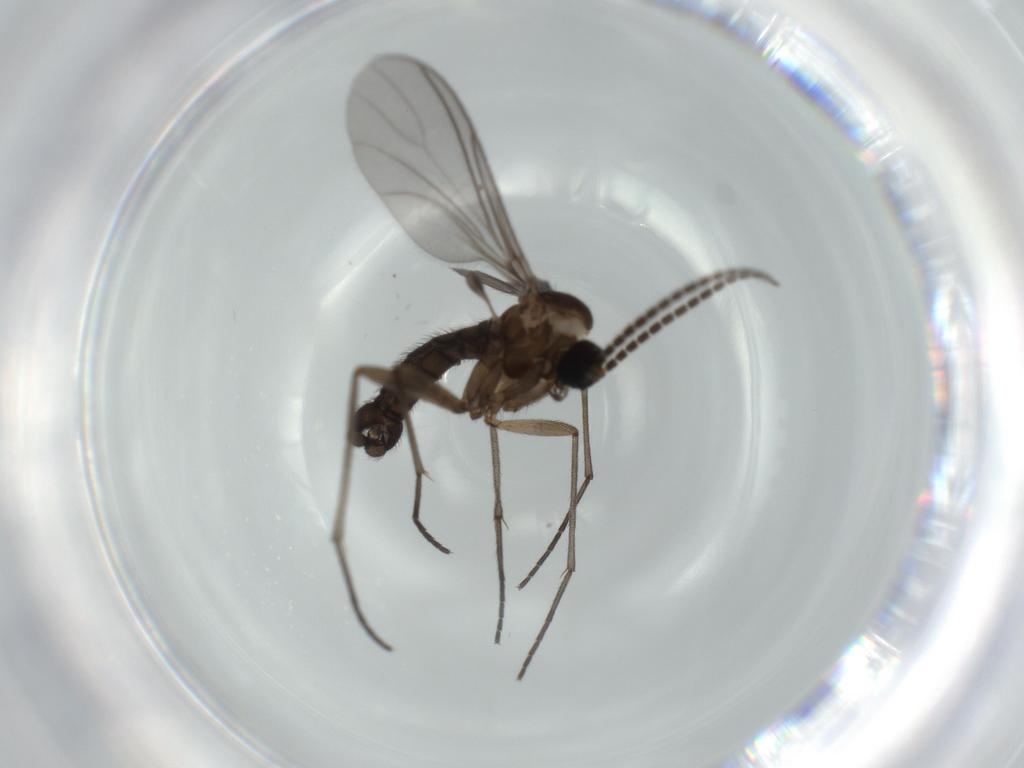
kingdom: Animalia
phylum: Arthropoda
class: Insecta
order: Diptera
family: Sciaridae
